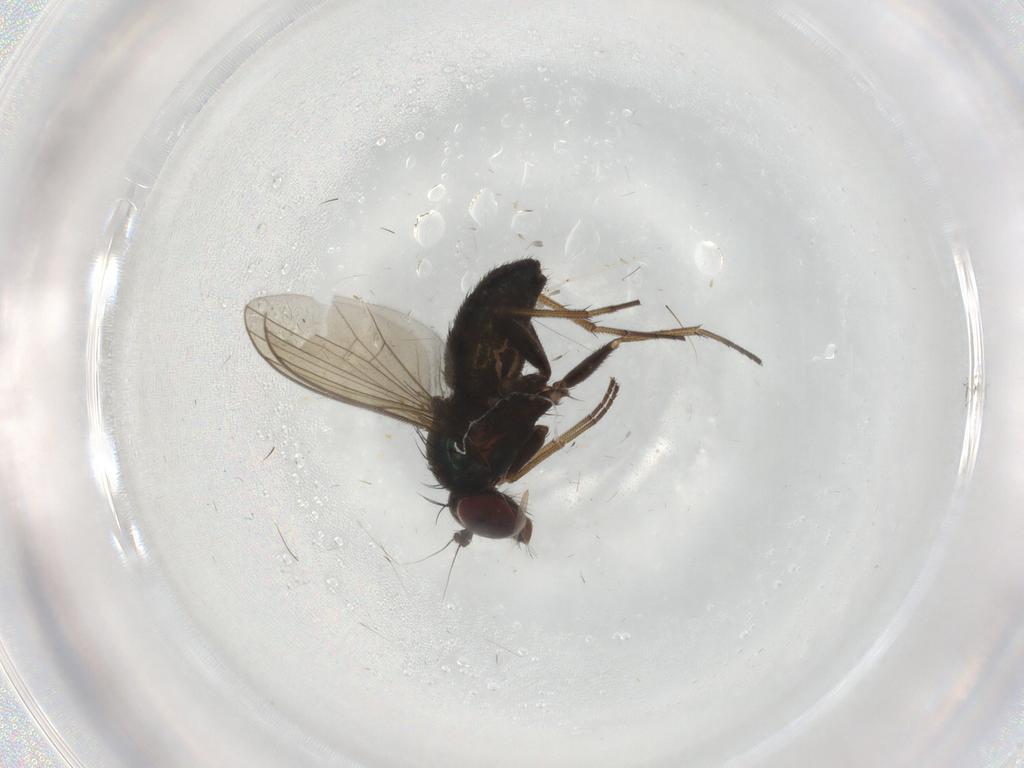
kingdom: Animalia
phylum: Arthropoda
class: Insecta
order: Diptera
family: Dolichopodidae
